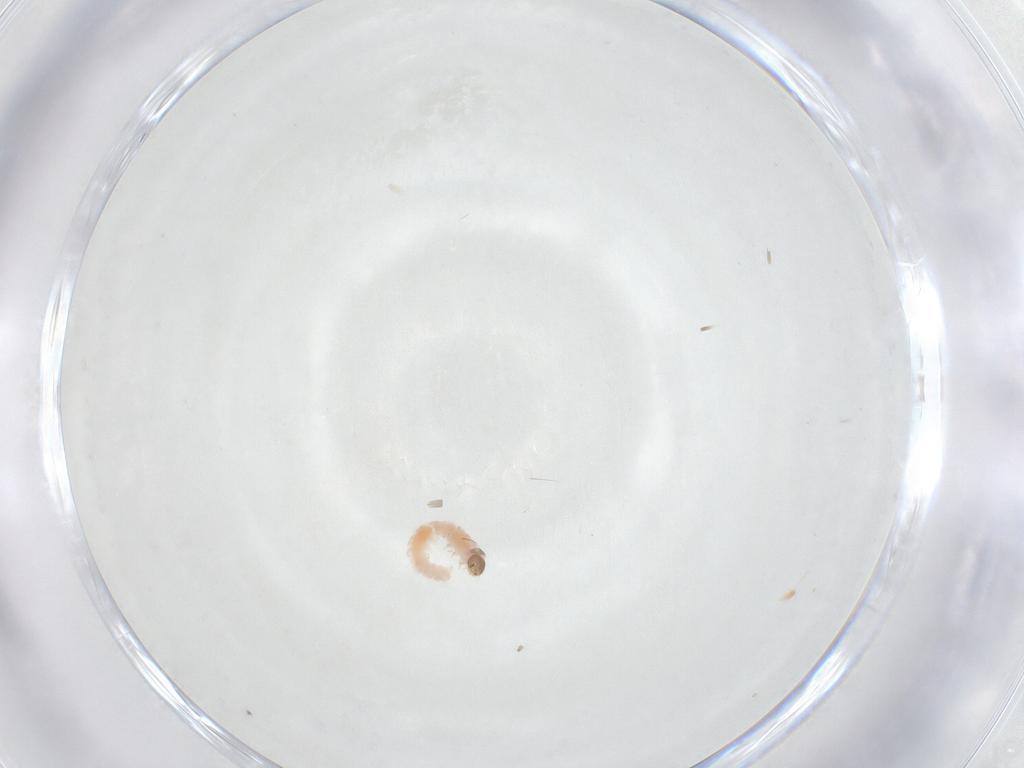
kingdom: Animalia
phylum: Arthropoda
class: Insecta
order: Lepidoptera
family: Pyralidae
